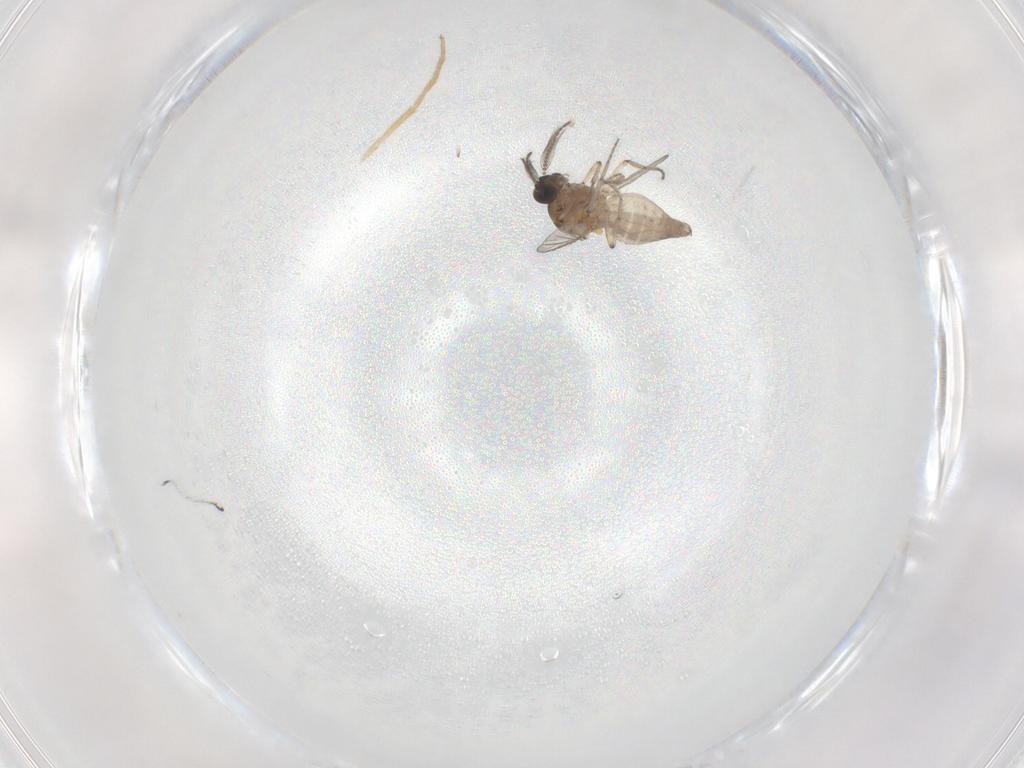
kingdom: Animalia
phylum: Arthropoda
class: Insecta
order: Diptera
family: Ceratopogonidae
